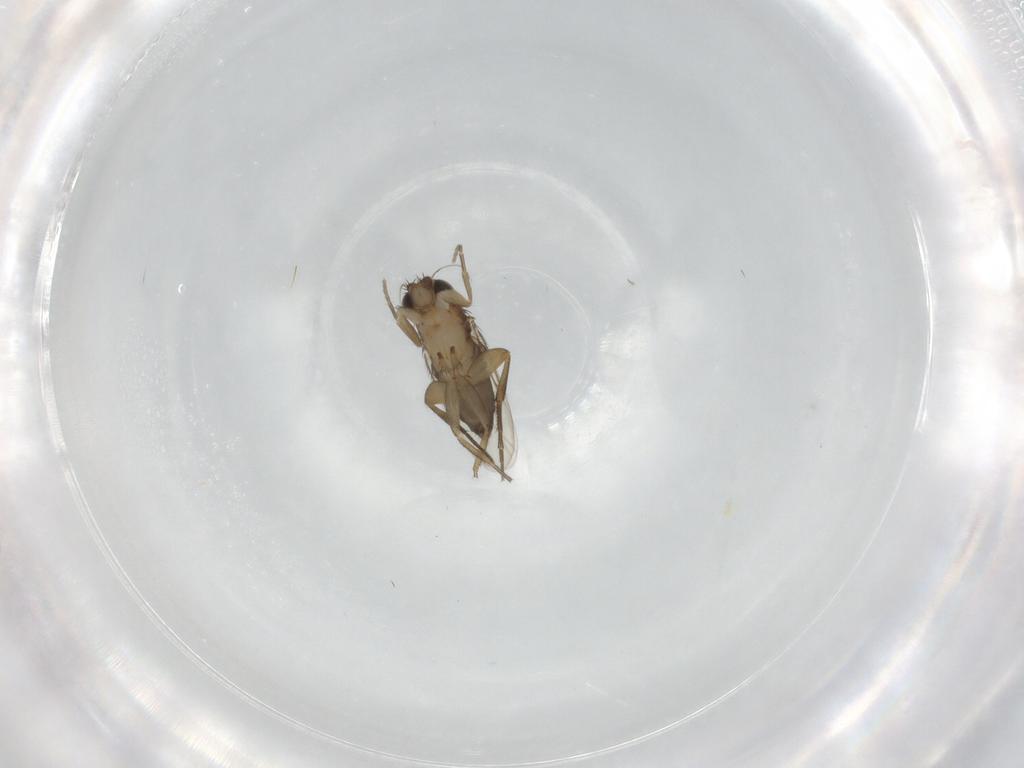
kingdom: Animalia
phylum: Arthropoda
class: Insecta
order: Diptera
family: Phoridae
